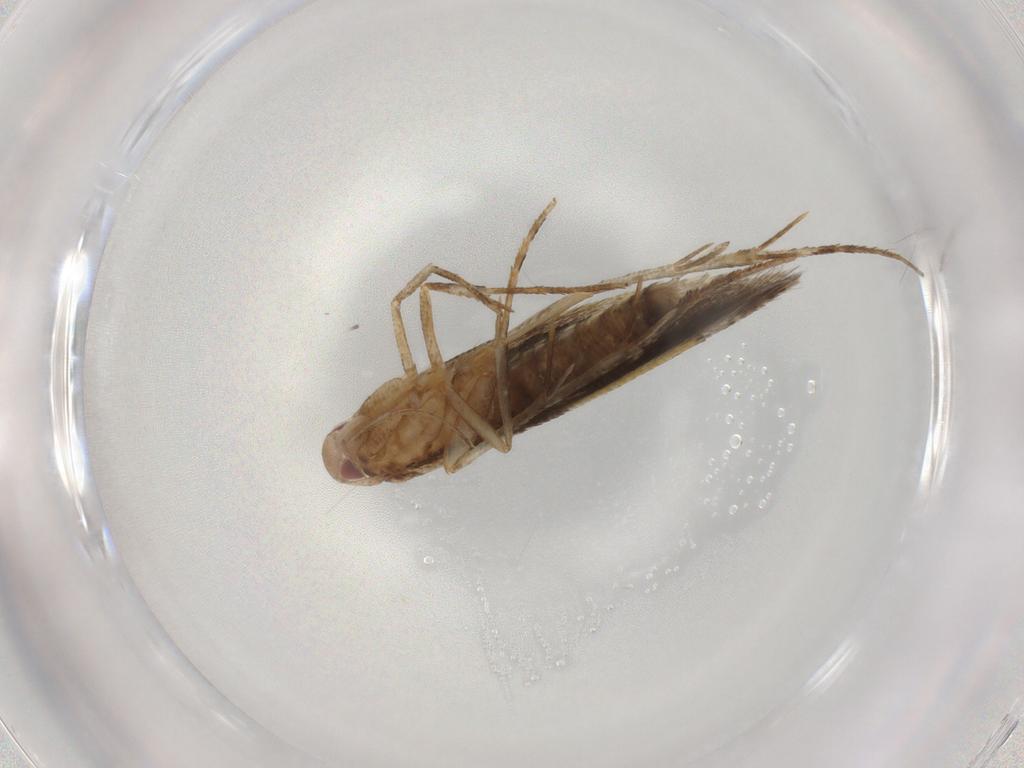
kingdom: Animalia
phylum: Arthropoda
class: Insecta
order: Lepidoptera
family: Cosmopterigidae
